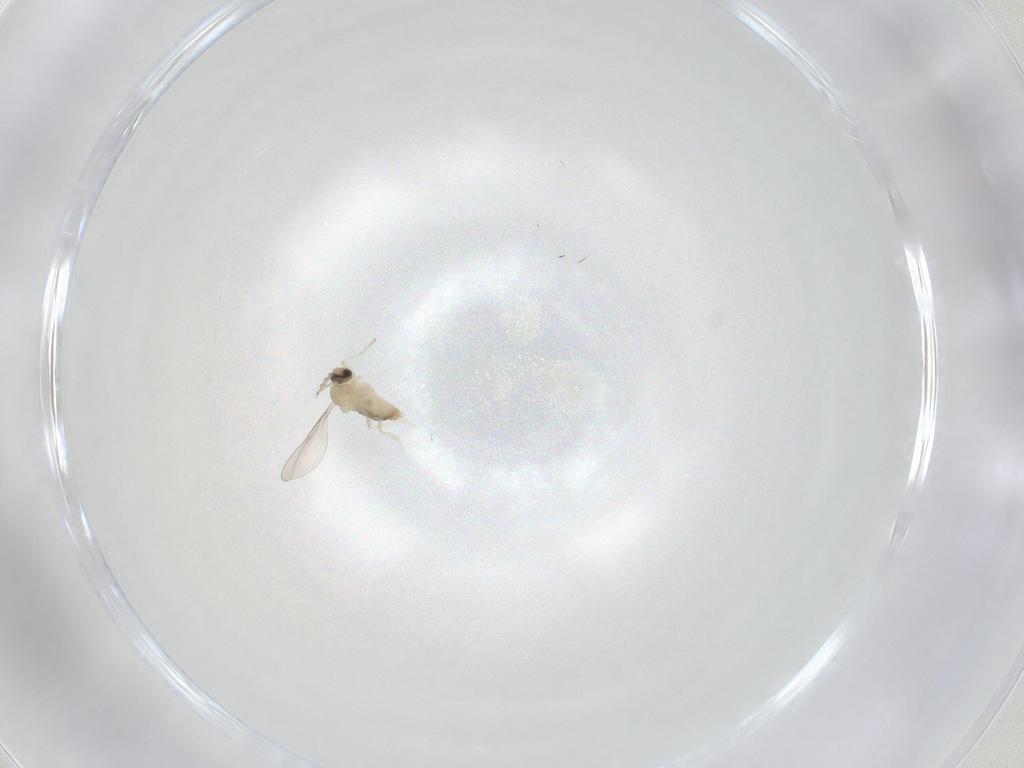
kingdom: Animalia
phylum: Arthropoda
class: Insecta
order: Diptera
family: Cecidomyiidae
